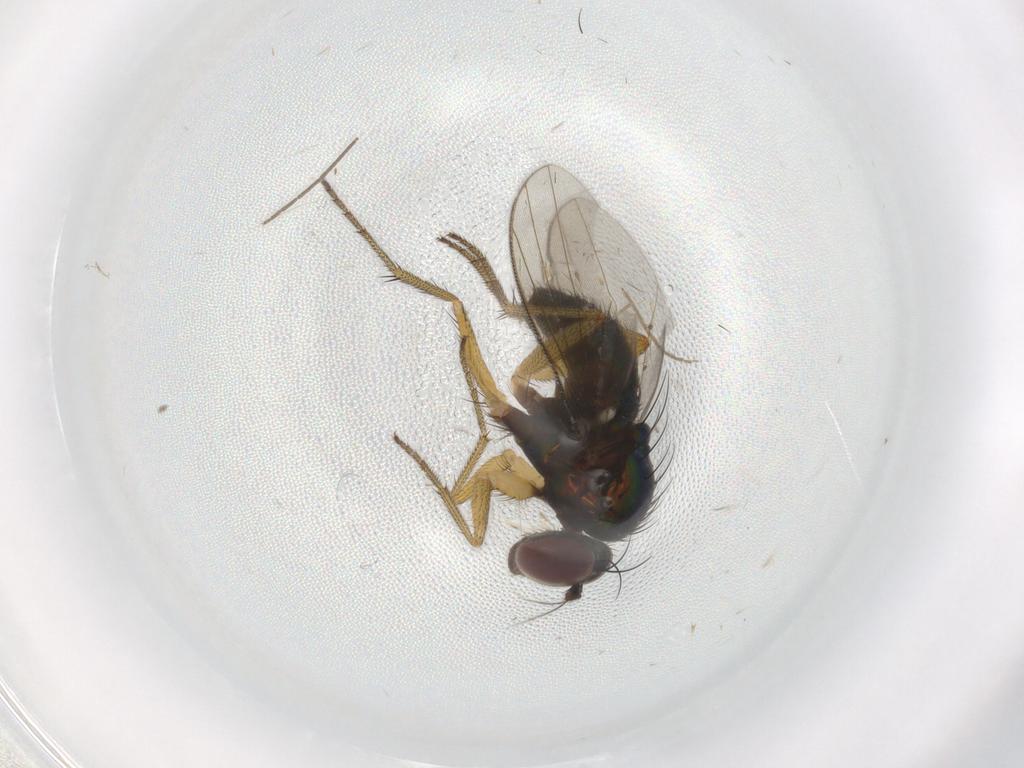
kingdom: Animalia
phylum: Arthropoda
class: Insecta
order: Diptera
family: Dolichopodidae
